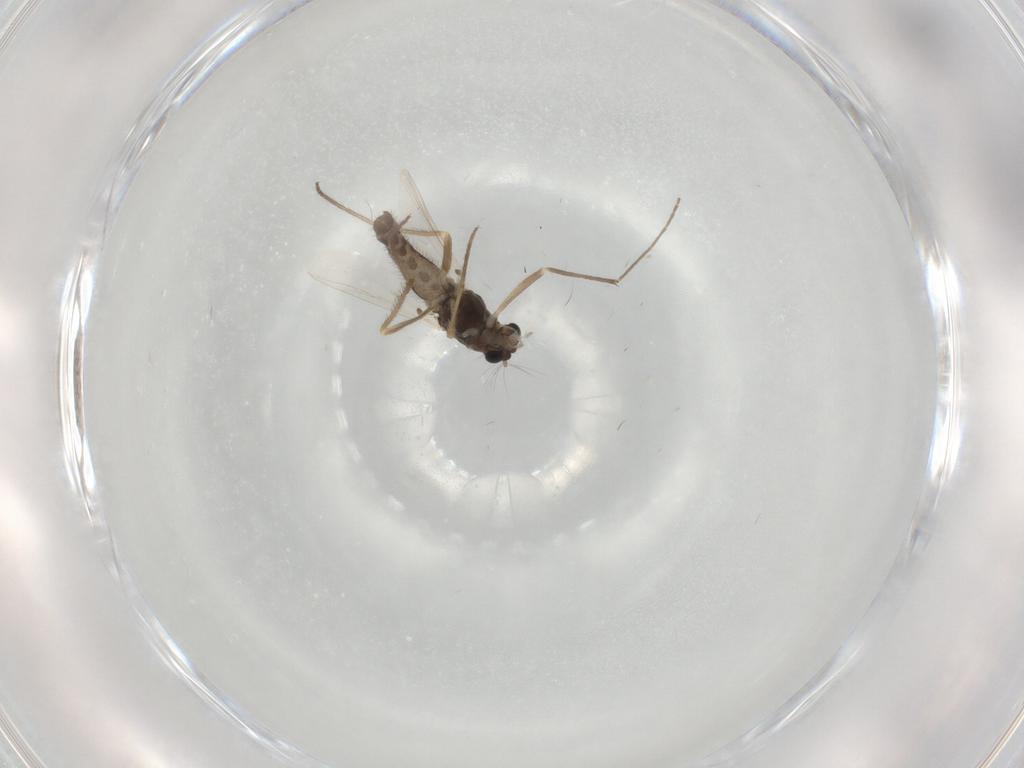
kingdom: Animalia
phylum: Arthropoda
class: Insecta
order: Diptera
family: Chironomidae
